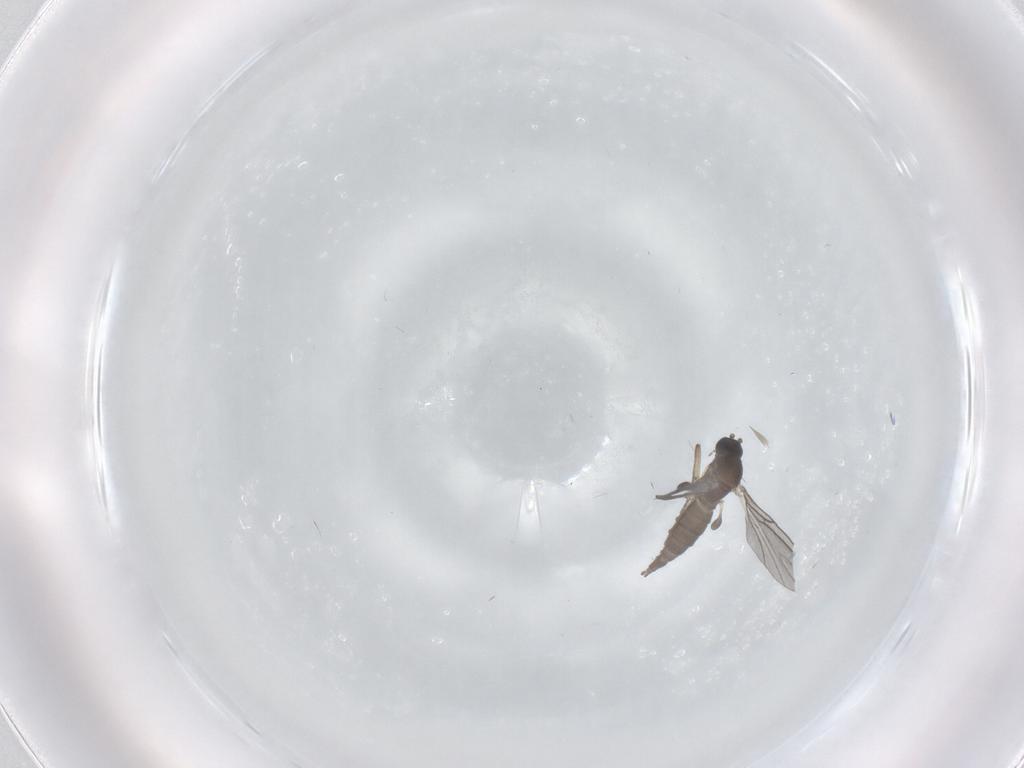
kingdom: Animalia
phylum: Arthropoda
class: Insecta
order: Diptera
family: Sciaridae
